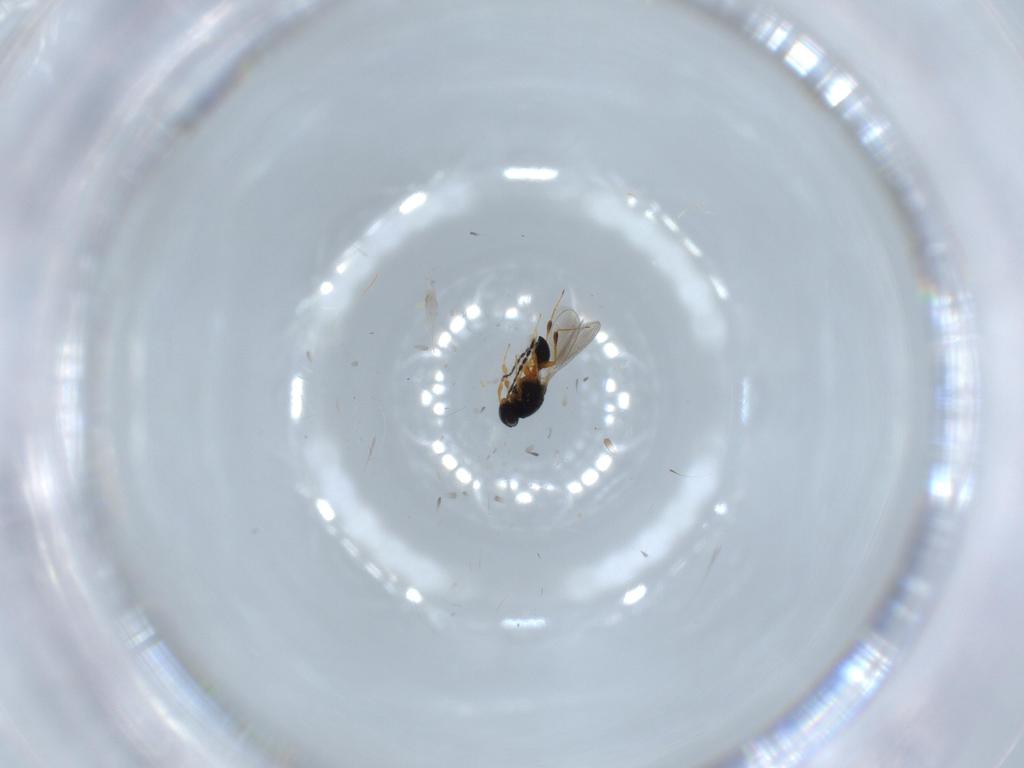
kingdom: Animalia
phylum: Arthropoda
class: Insecta
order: Hymenoptera
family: Platygastridae
